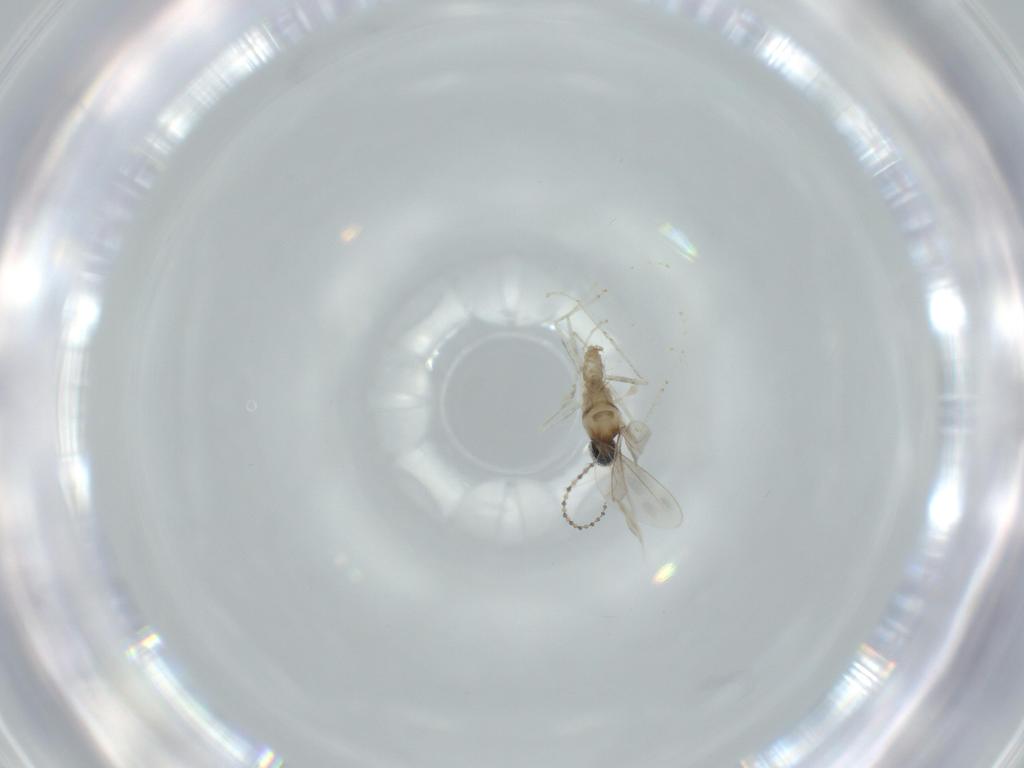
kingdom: Animalia
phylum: Arthropoda
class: Insecta
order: Diptera
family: Cecidomyiidae
